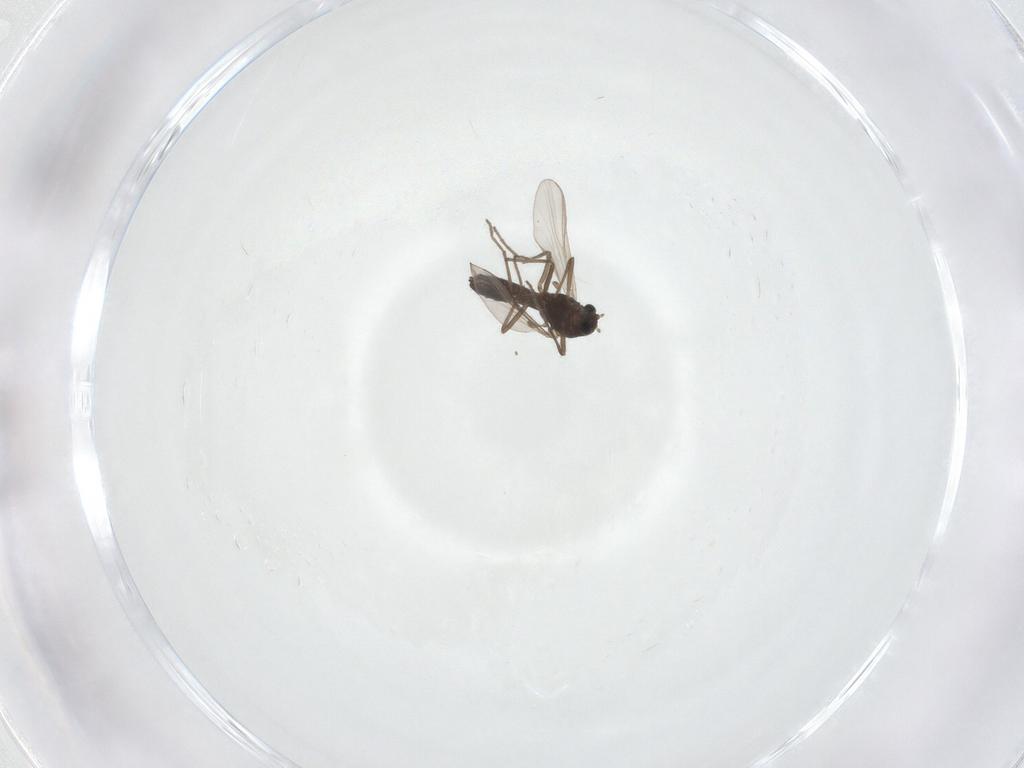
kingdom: Animalia
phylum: Arthropoda
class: Insecta
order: Diptera
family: Chironomidae
